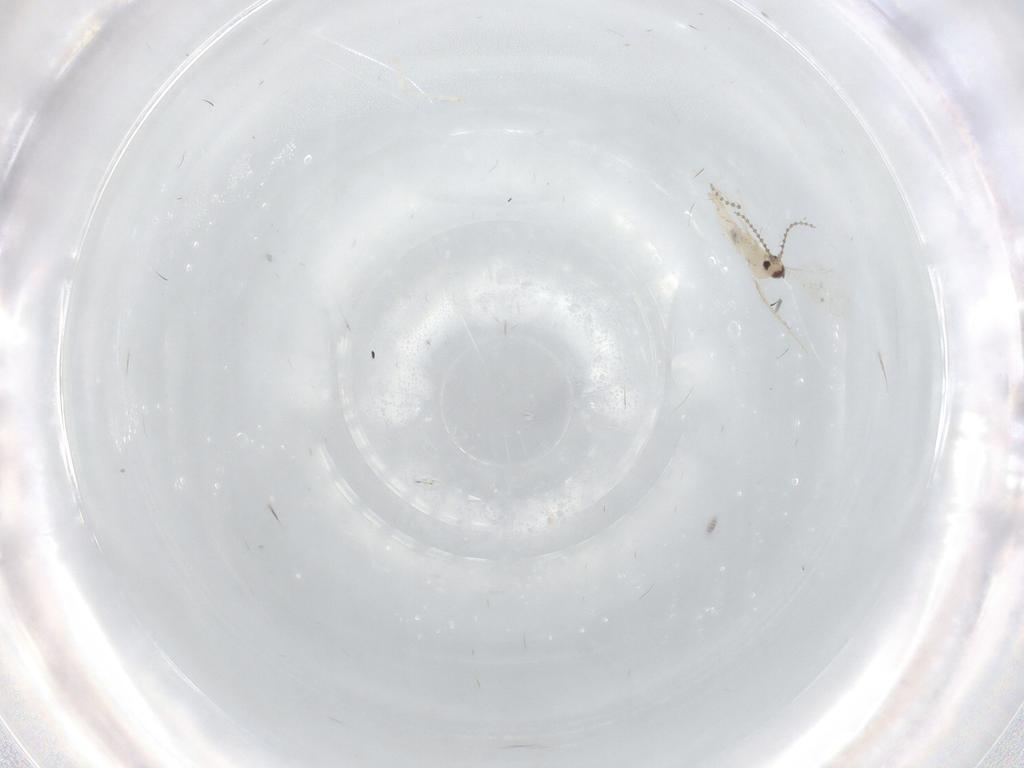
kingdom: Animalia
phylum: Arthropoda
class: Insecta
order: Diptera
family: Cecidomyiidae
